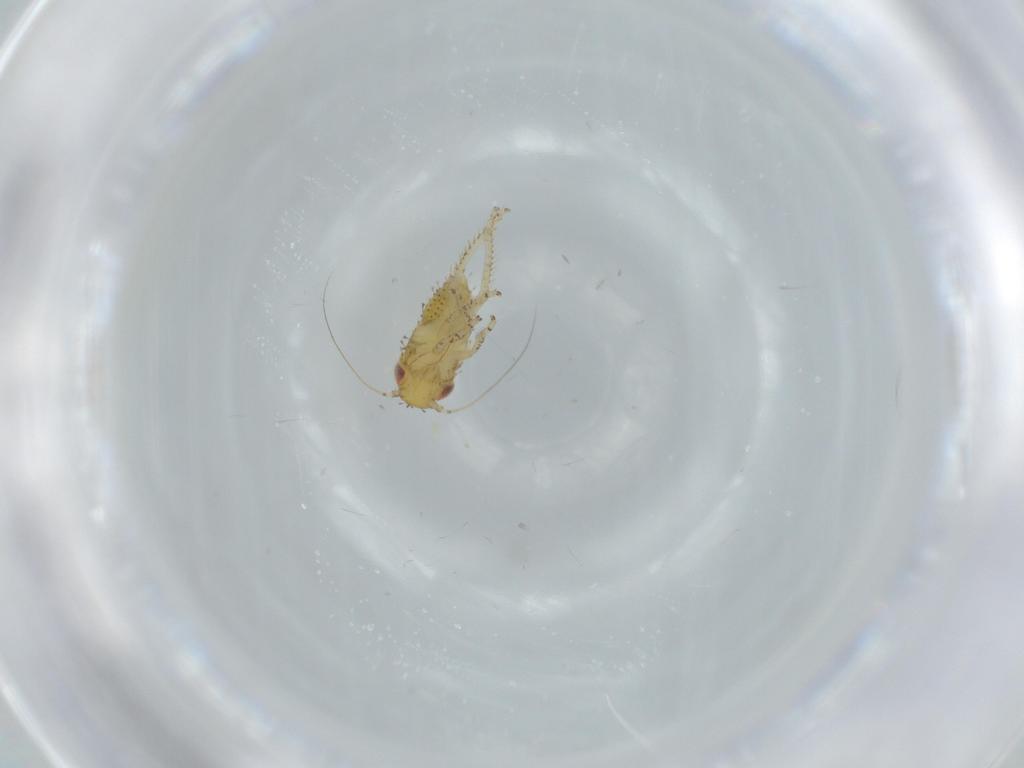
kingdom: Animalia
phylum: Arthropoda
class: Insecta
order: Hemiptera
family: Cicadellidae
